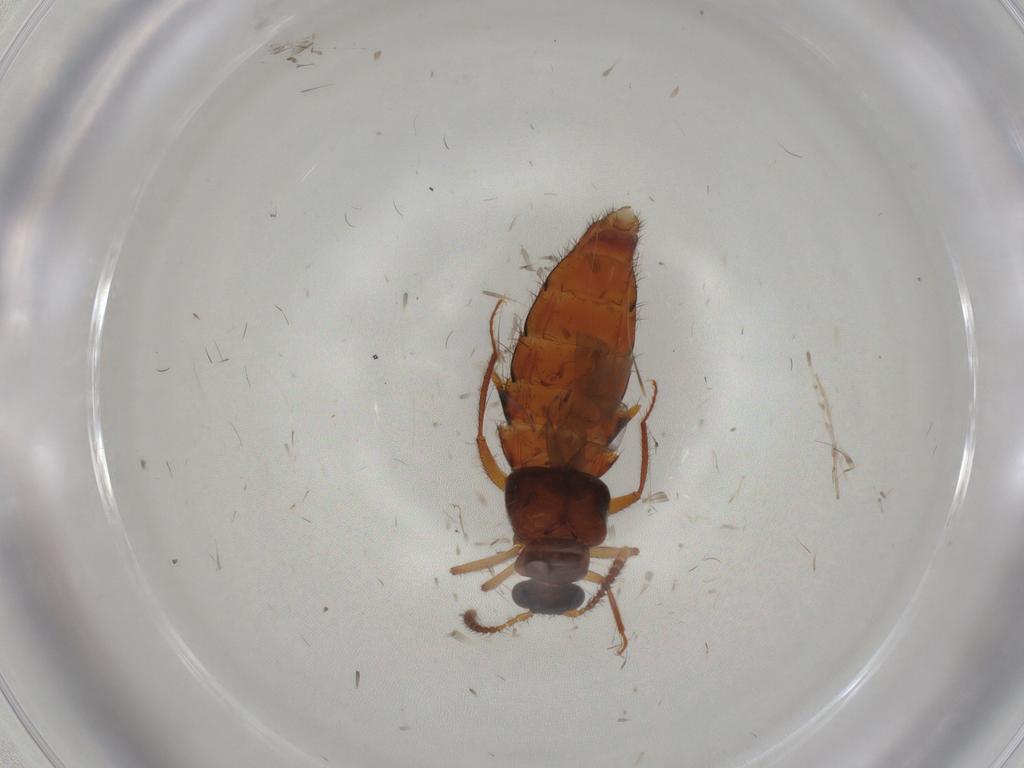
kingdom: Animalia
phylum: Arthropoda
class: Insecta
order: Coleoptera
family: Staphylinidae
